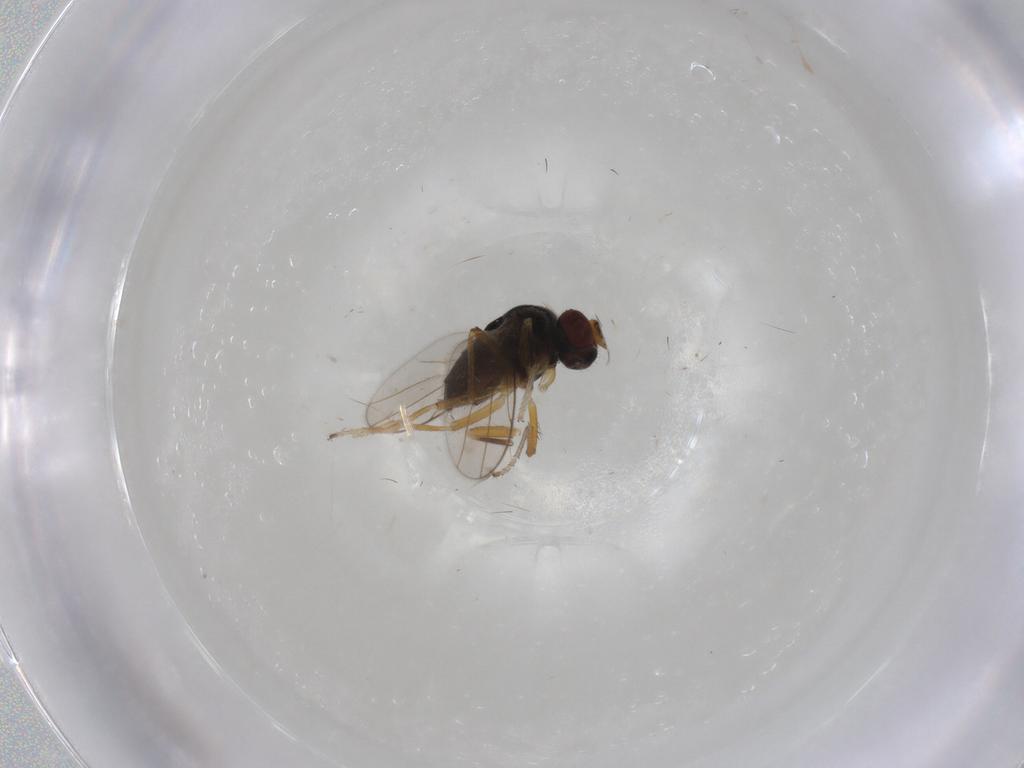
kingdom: Animalia
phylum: Arthropoda
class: Insecta
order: Diptera
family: Ephydridae
